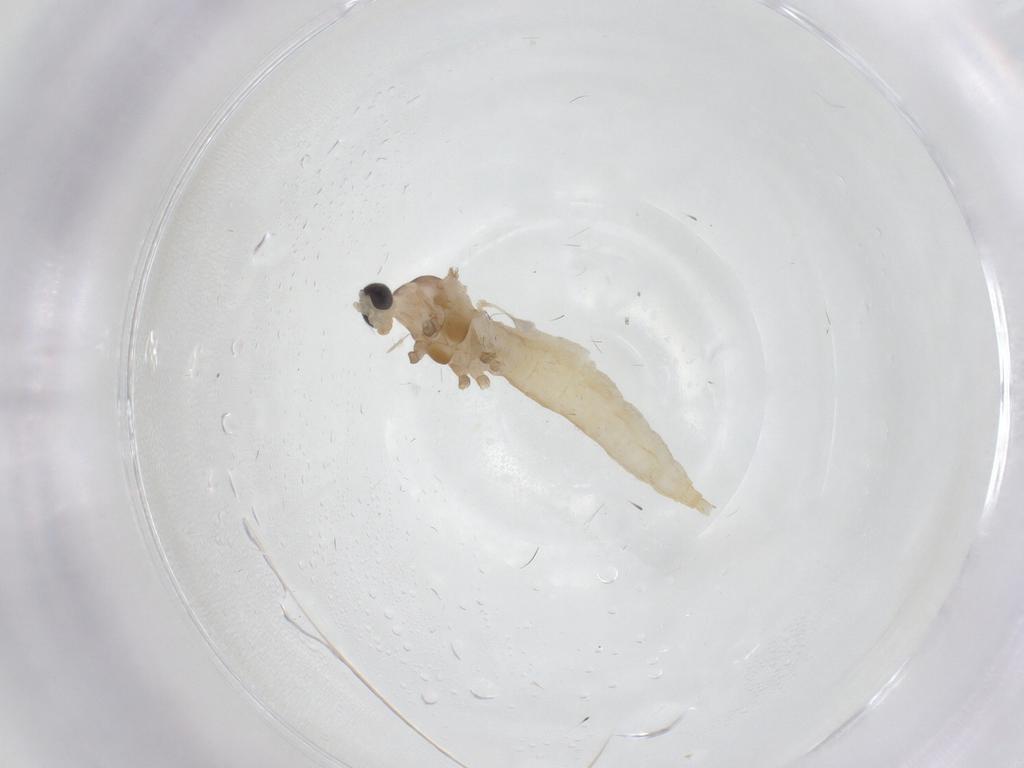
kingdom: Animalia
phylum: Arthropoda
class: Insecta
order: Diptera
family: Cecidomyiidae
